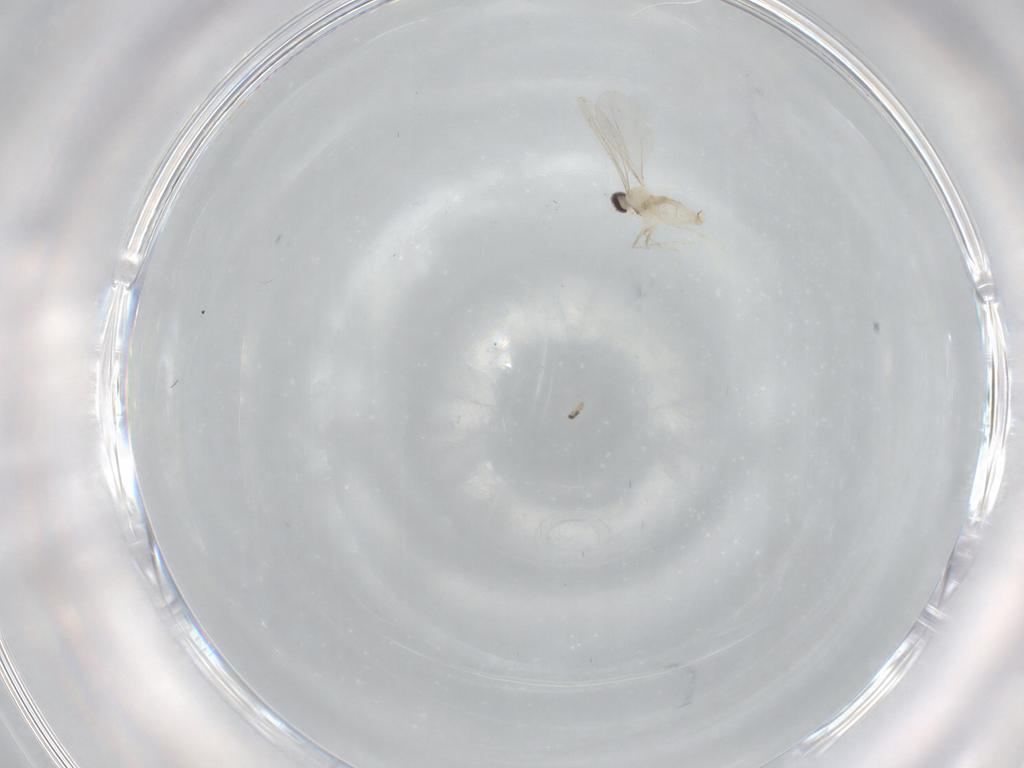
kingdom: Animalia
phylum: Arthropoda
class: Insecta
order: Diptera
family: Cecidomyiidae
